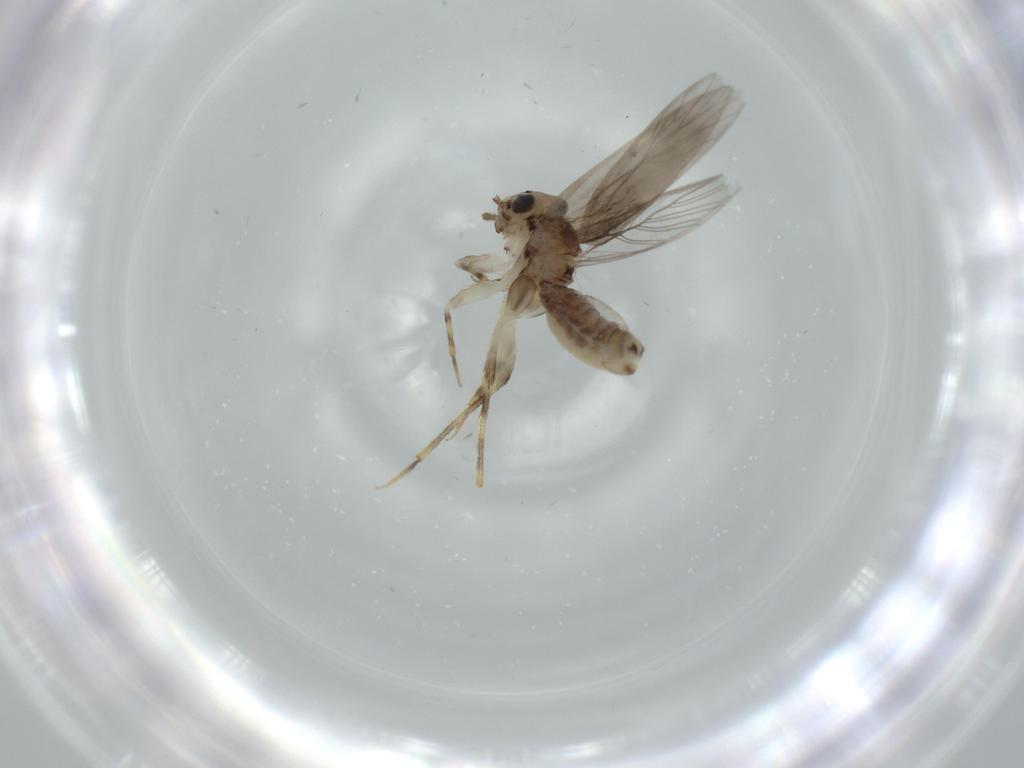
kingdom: Animalia
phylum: Arthropoda
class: Insecta
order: Psocodea
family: Lepidopsocidae
